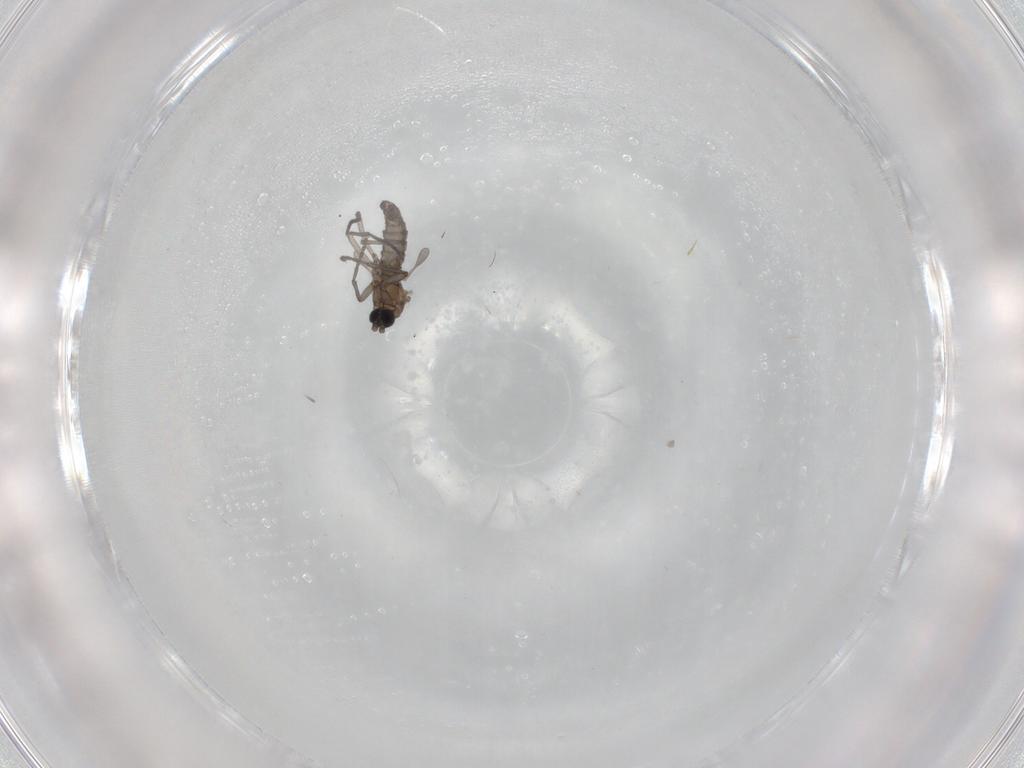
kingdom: Animalia
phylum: Arthropoda
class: Insecta
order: Diptera
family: Sciaridae
